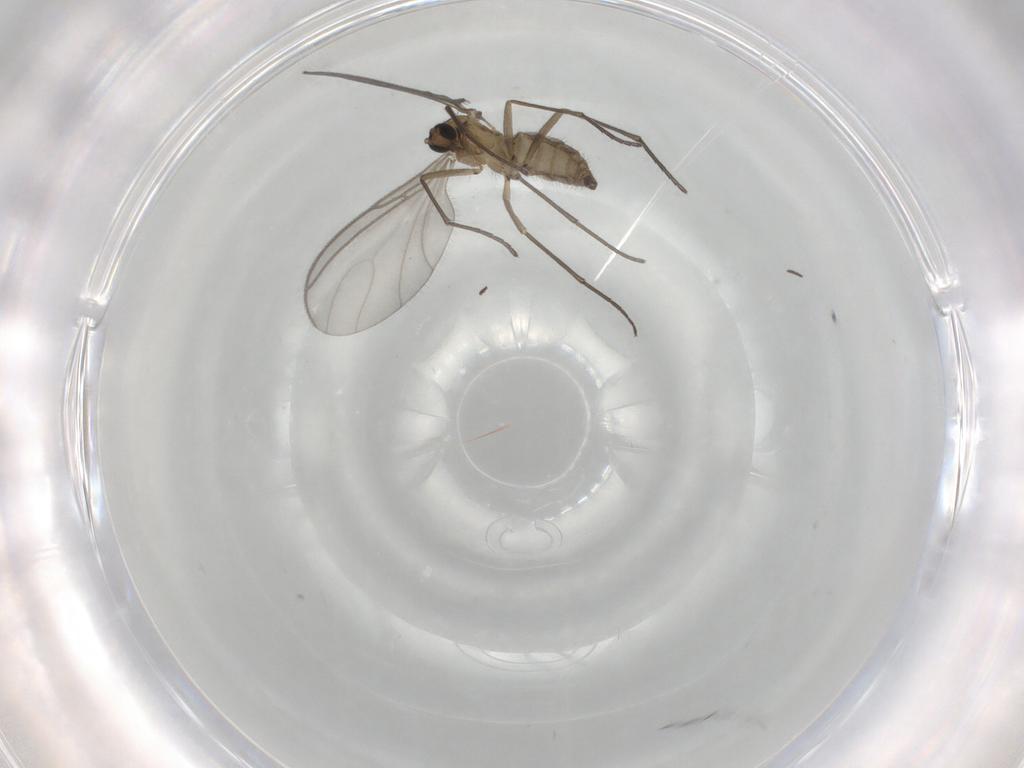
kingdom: Animalia
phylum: Arthropoda
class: Insecta
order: Diptera
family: Sciaridae
